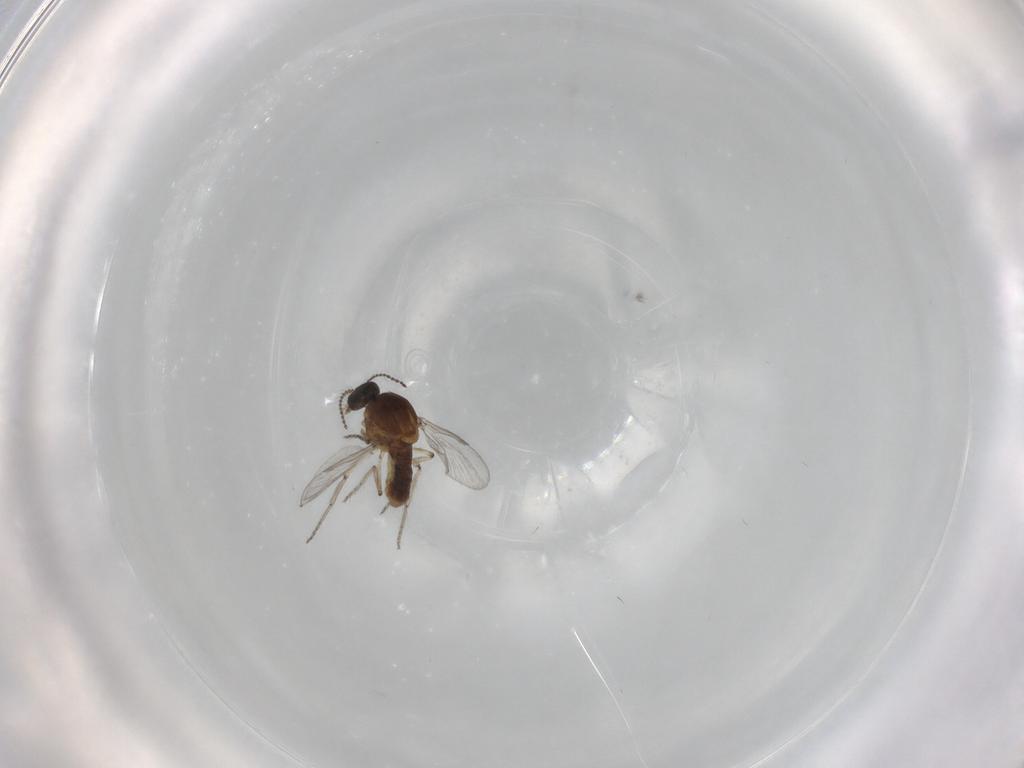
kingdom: Animalia
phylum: Arthropoda
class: Insecta
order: Diptera
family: Ceratopogonidae
